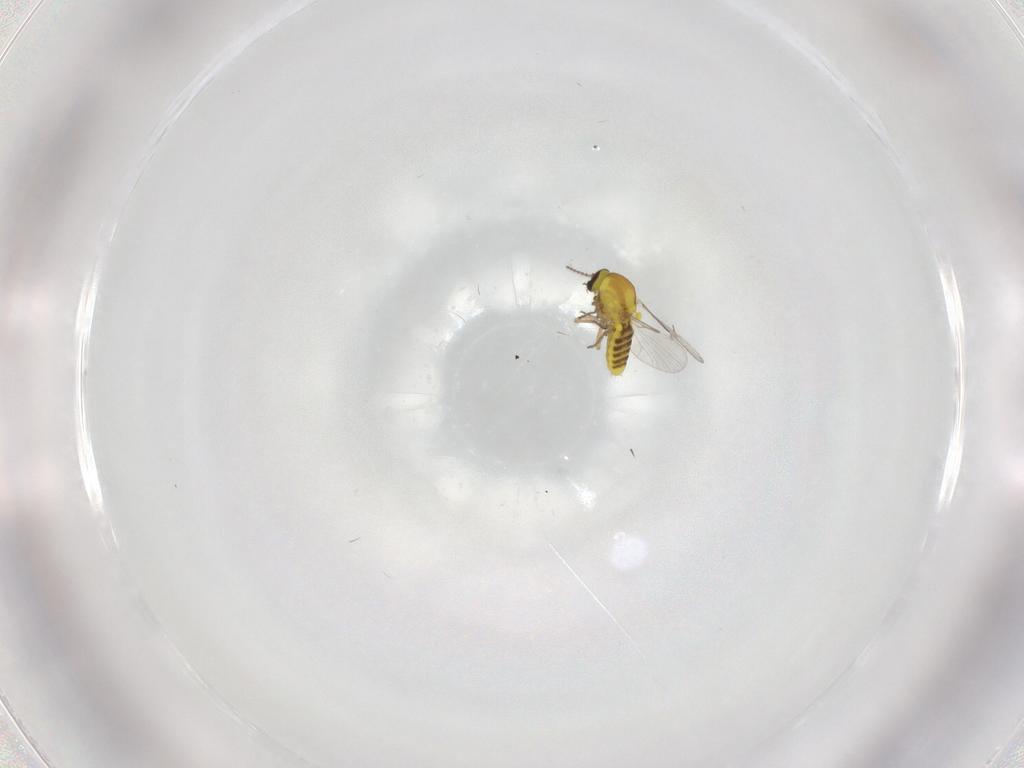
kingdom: Animalia
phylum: Arthropoda
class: Insecta
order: Diptera
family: Ceratopogonidae
